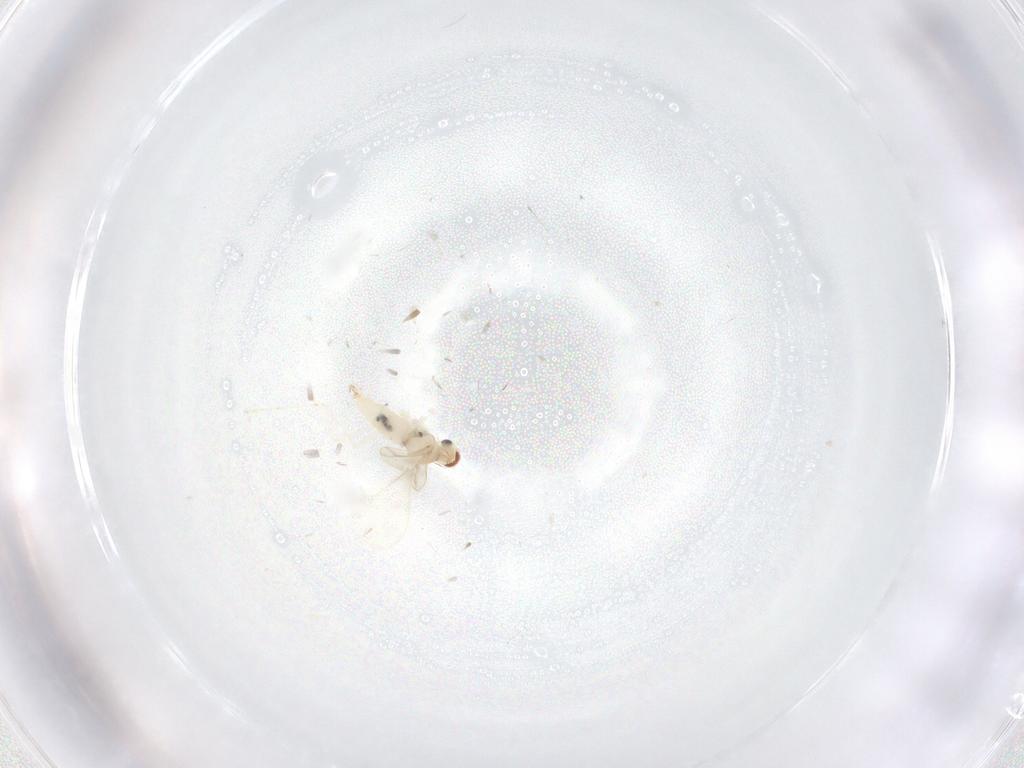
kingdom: Animalia
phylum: Arthropoda
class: Insecta
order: Diptera
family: Cecidomyiidae
